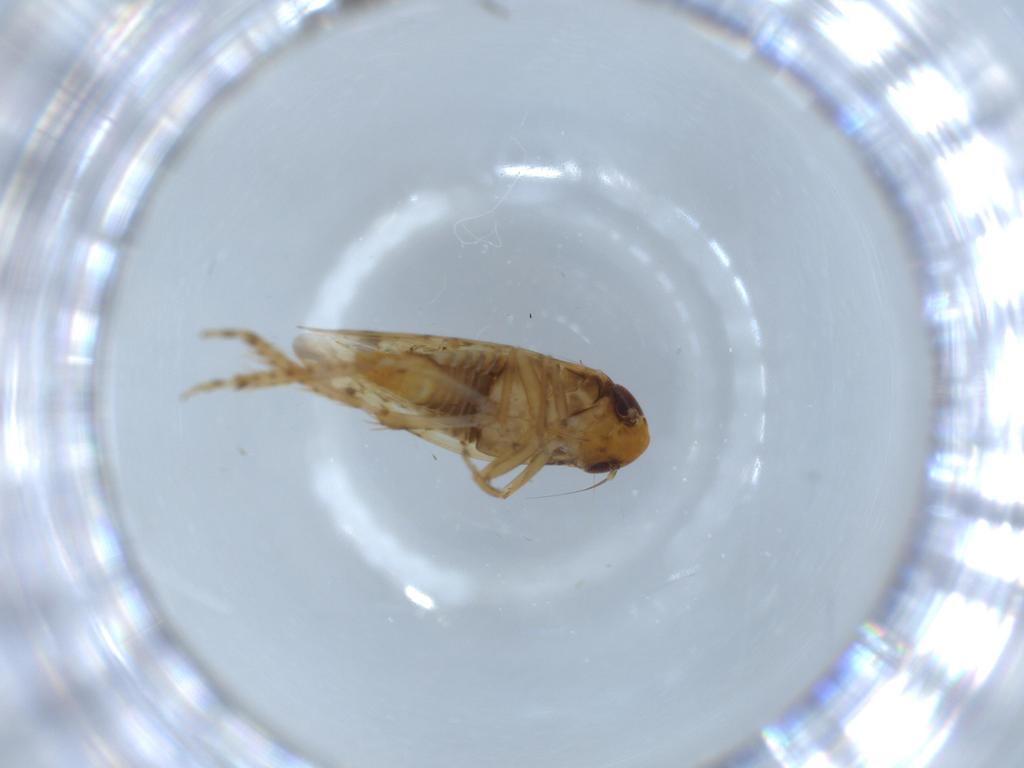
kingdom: Animalia
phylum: Arthropoda
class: Insecta
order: Hemiptera
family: Cicadellidae
